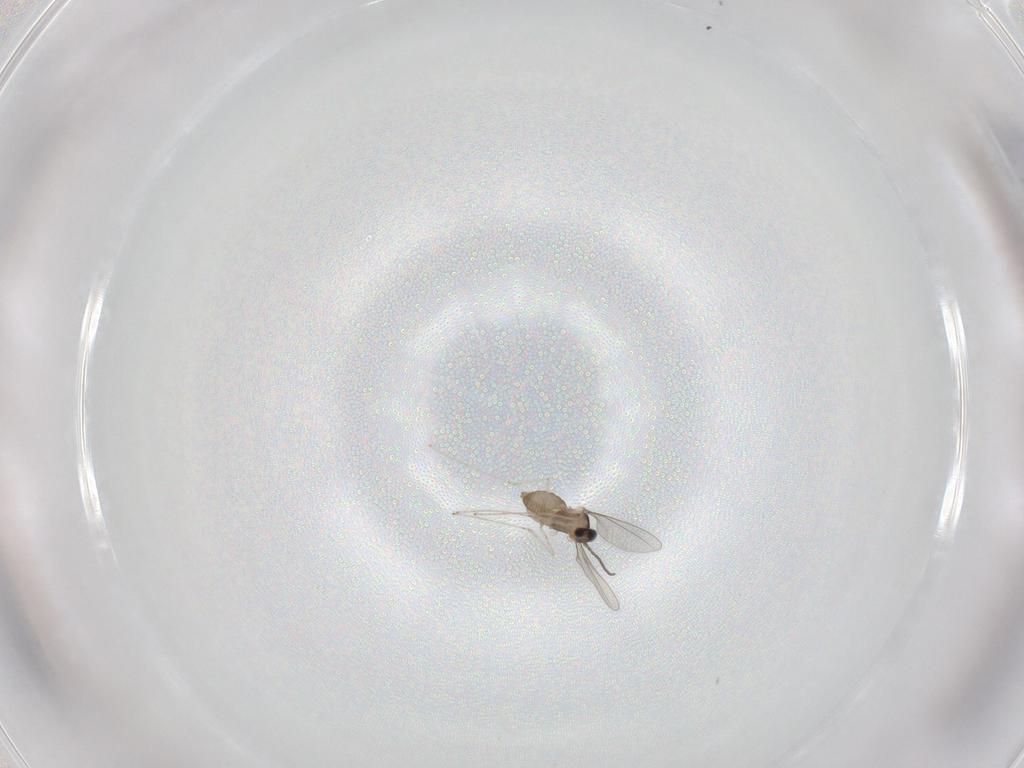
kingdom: Animalia
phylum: Arthropoda
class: Insecta
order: Diptera
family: Cecidomyiidae
